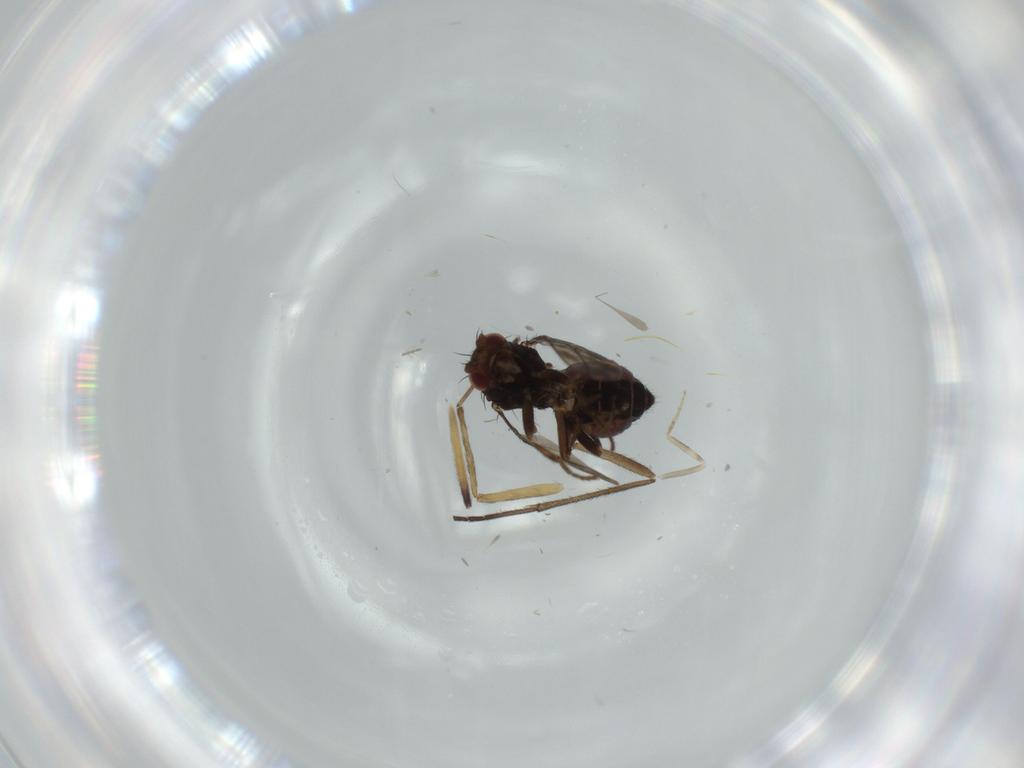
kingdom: Animalia
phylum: Arthropoda
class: Insecta
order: Diptera
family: Sphaeroceridae
